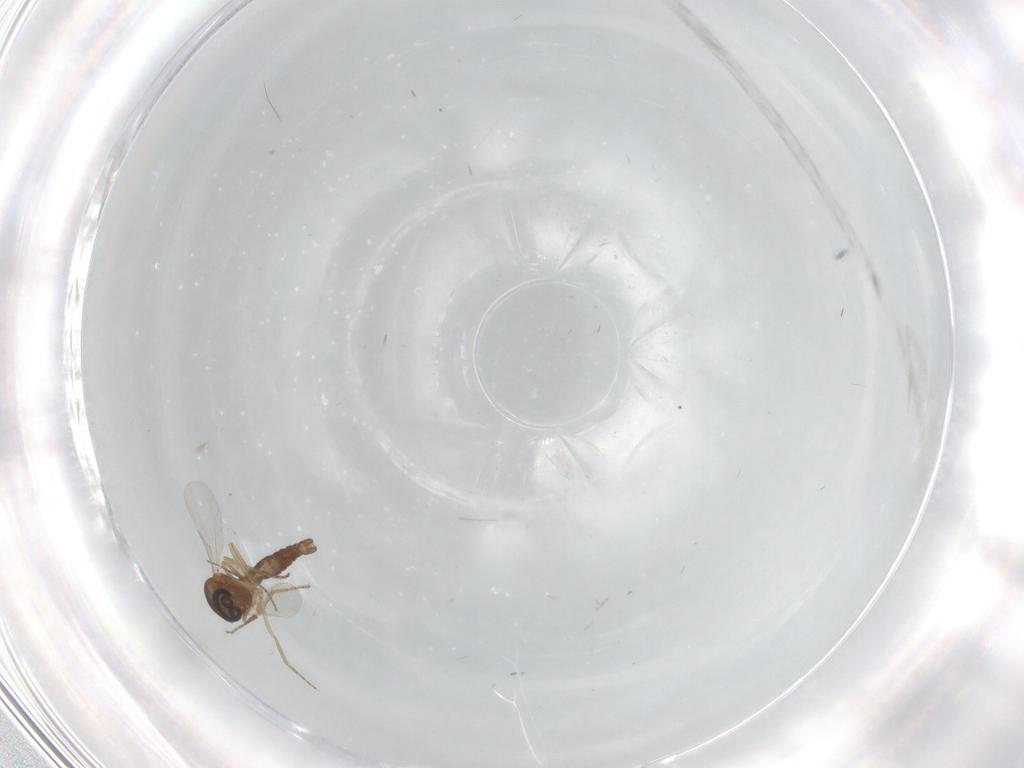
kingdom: Animalia
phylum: Arthropoda
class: Insecta
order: Diptera
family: Ceratopogonidae
